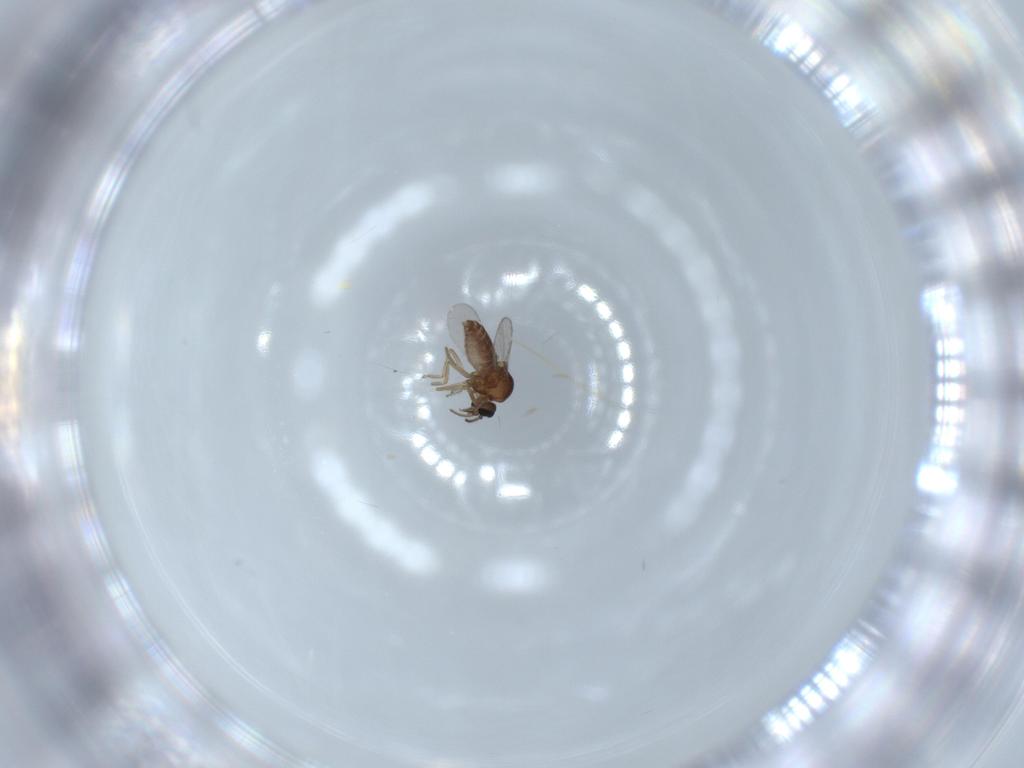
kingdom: Animalia
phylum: Arthropoda
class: Insecta
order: Diptera
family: Ceratopogonidae
